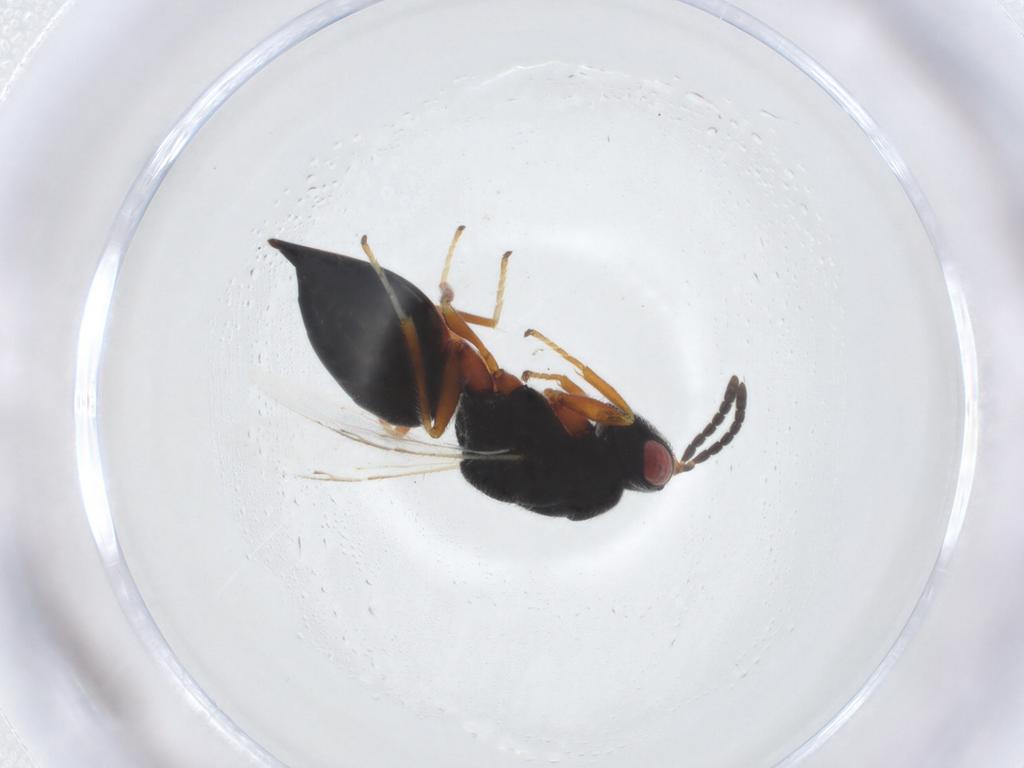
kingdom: Animalia
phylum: Arthropoda
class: Insecta
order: Hymenoptera
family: Eurytomidae
